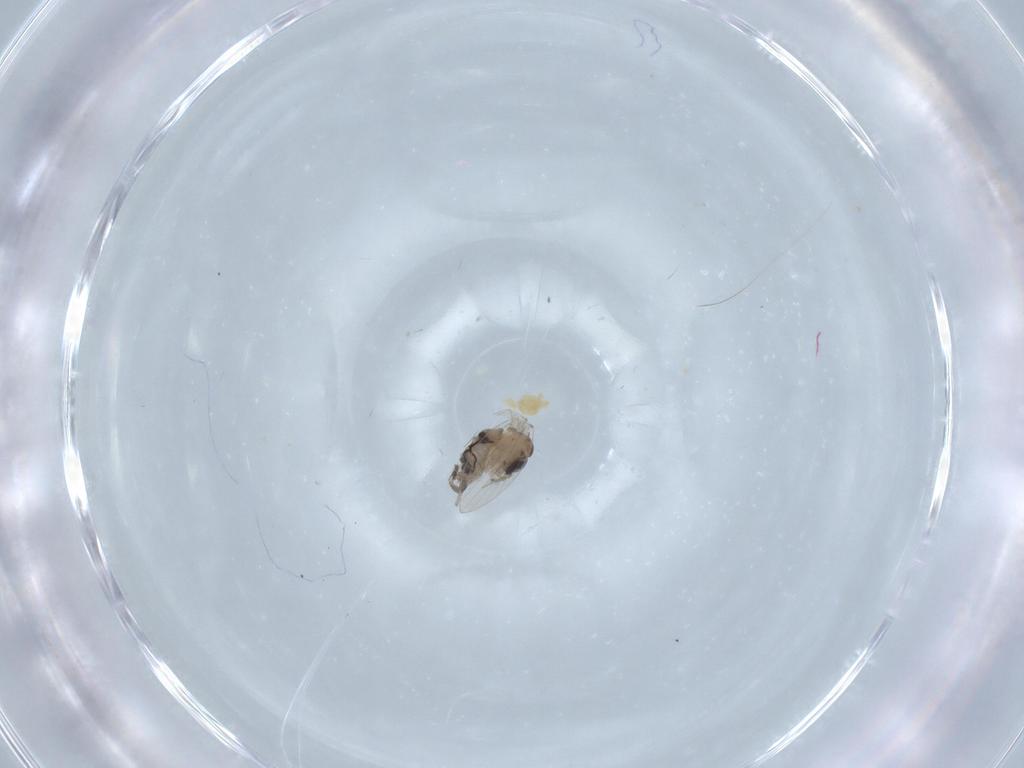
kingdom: Animalia
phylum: Arthropoda
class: Insecta
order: Diptera
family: Psychodidae
